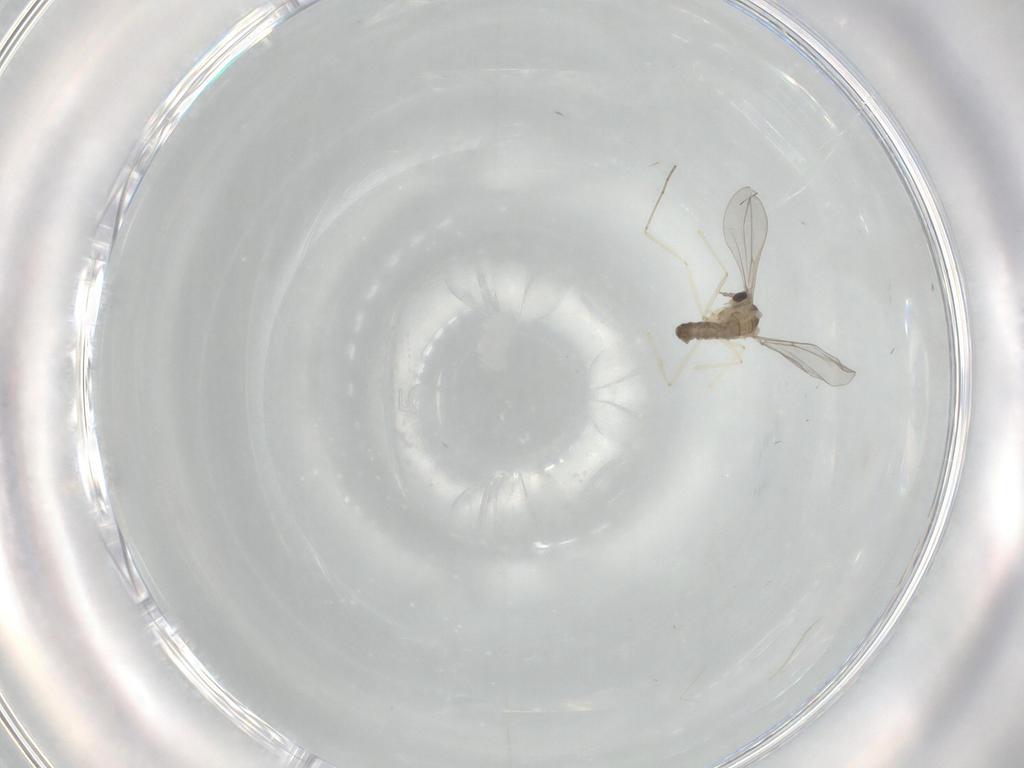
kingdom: Animalia
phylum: Arthropoda
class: Insecta
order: Diptera
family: Cecidomyiidae
